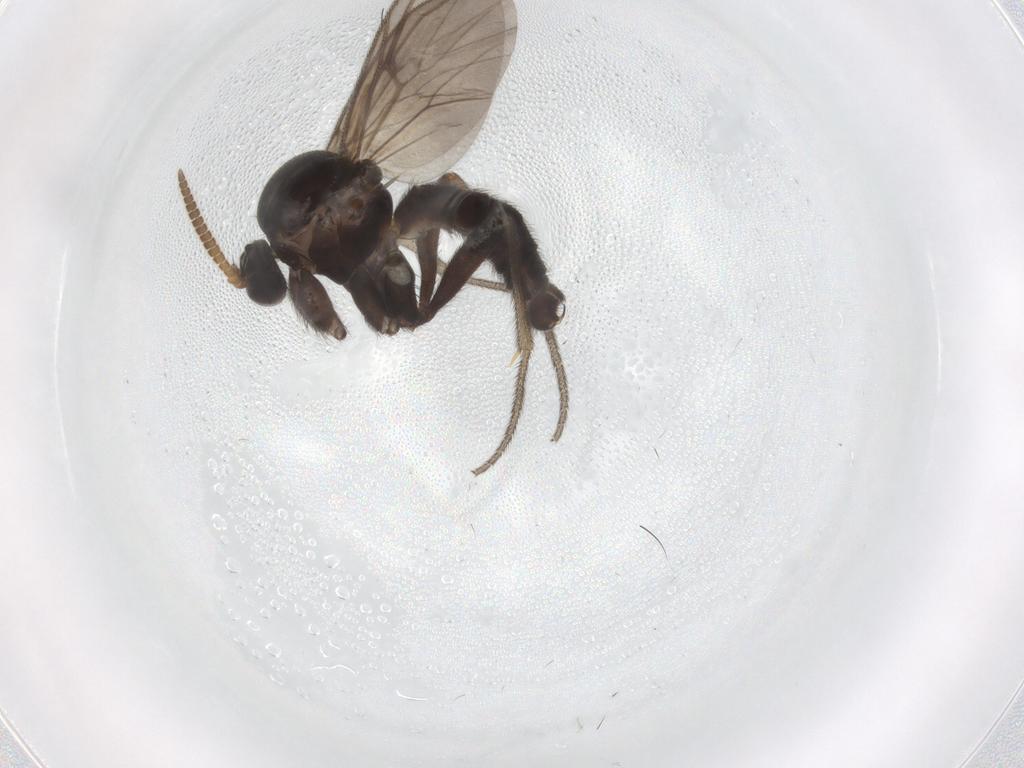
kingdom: Animalia
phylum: Arthropoda
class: Insecta
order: Diptera
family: Mycetophilidae
